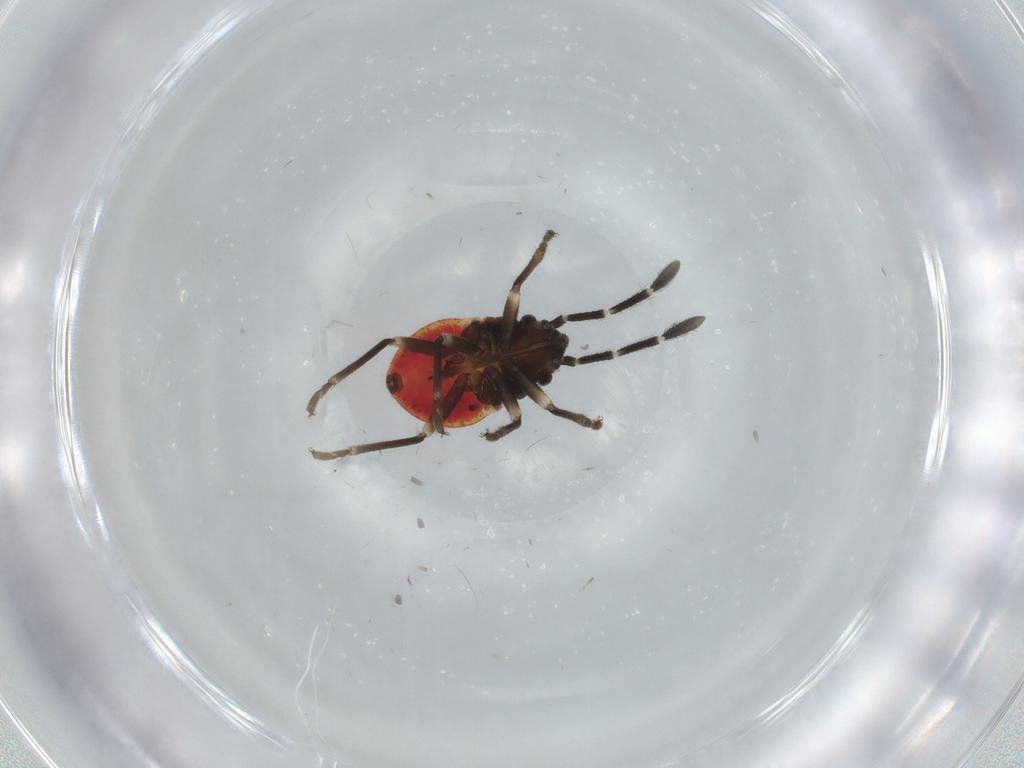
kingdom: Animalia
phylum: Arthropoda
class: Insecta
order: Hemiptera
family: Lygaeidae
